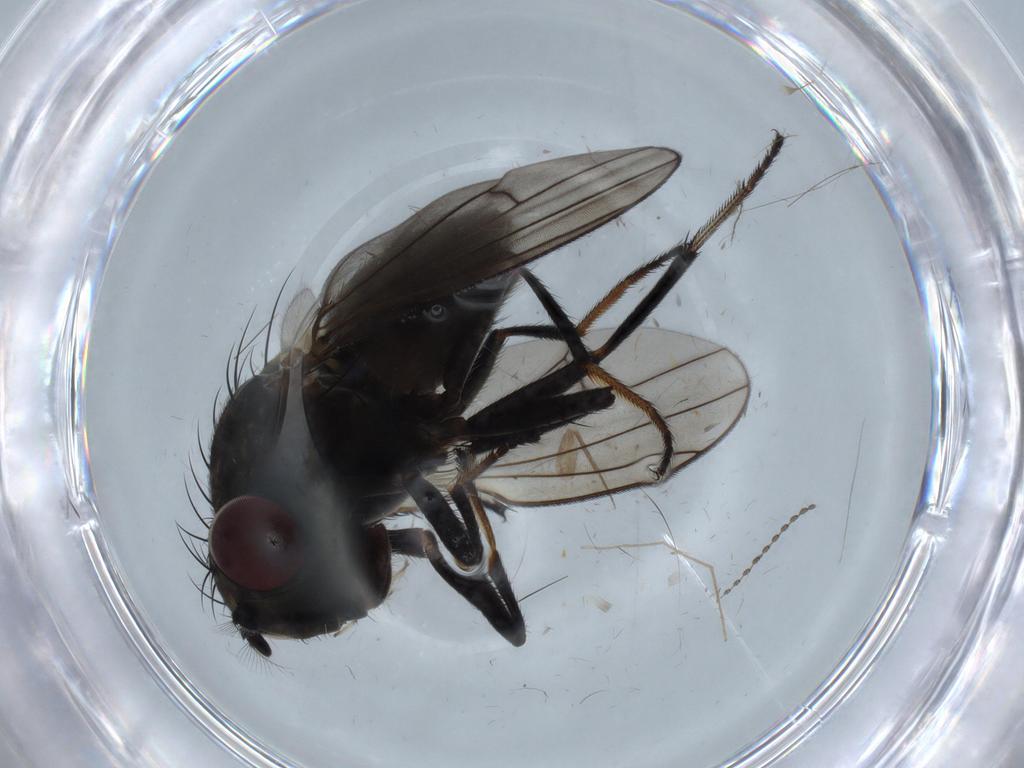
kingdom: Animalia
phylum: Arthropoda
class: Insecta
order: Diptera
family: Ephydridae
